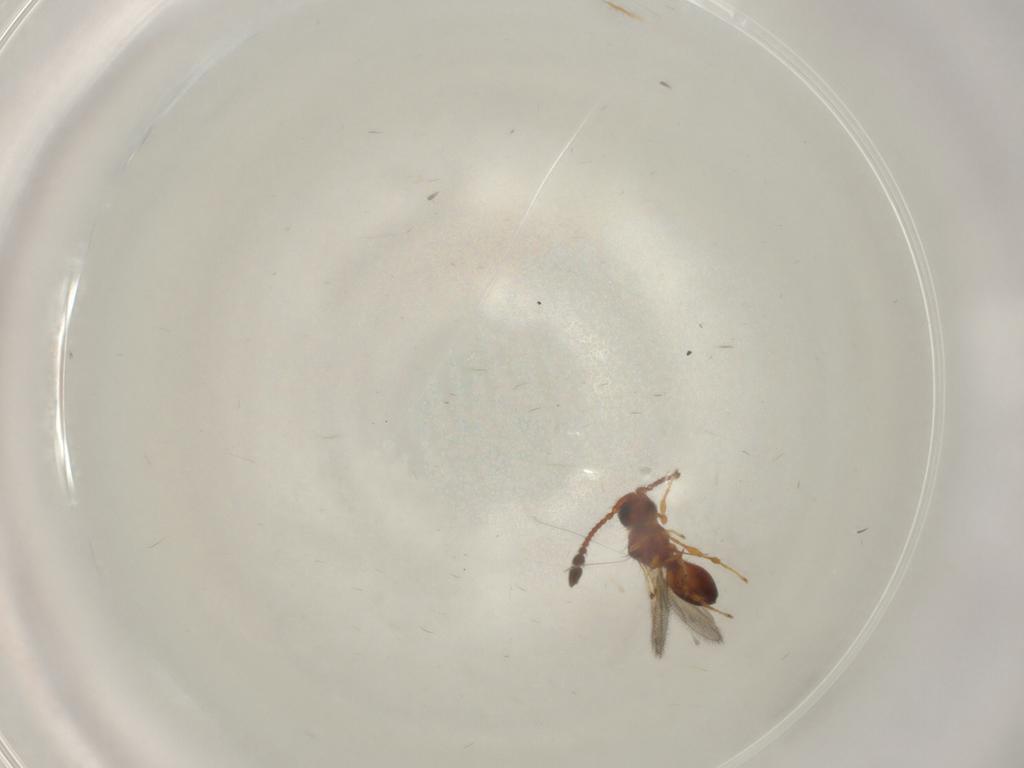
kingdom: Animalia
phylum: Arthropoda
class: Insecta
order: Hymenoptera
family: Diapriidae
